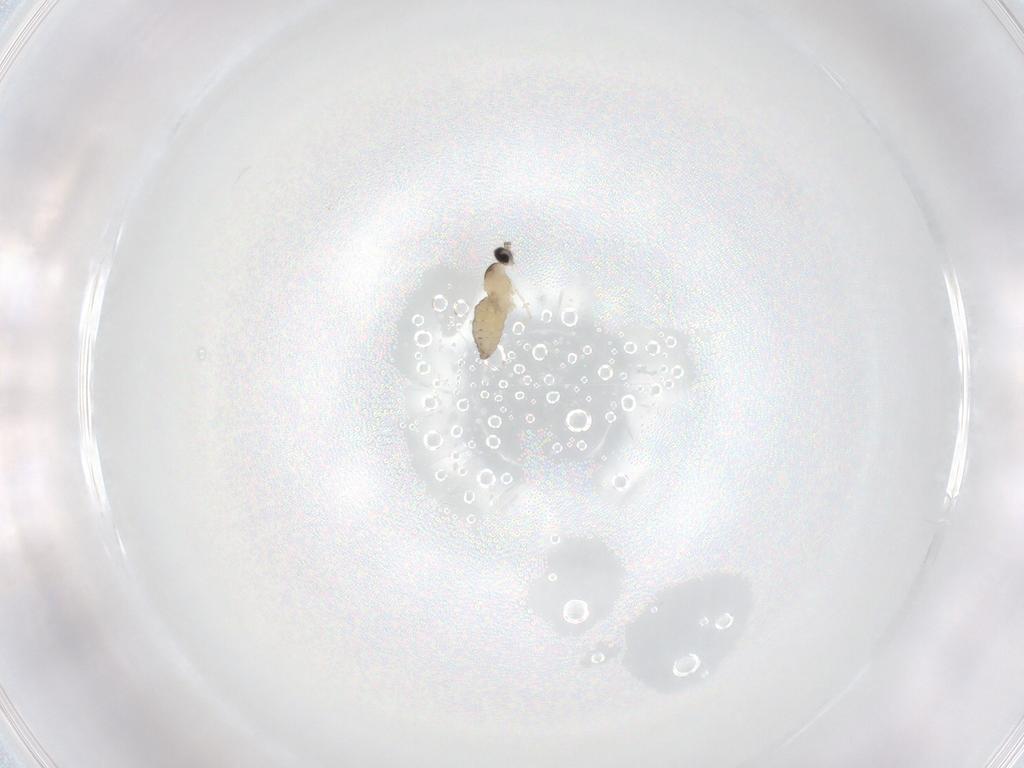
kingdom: Animalia
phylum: Arthropoda
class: Insecta
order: Diptera
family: Cecidomyiidae
